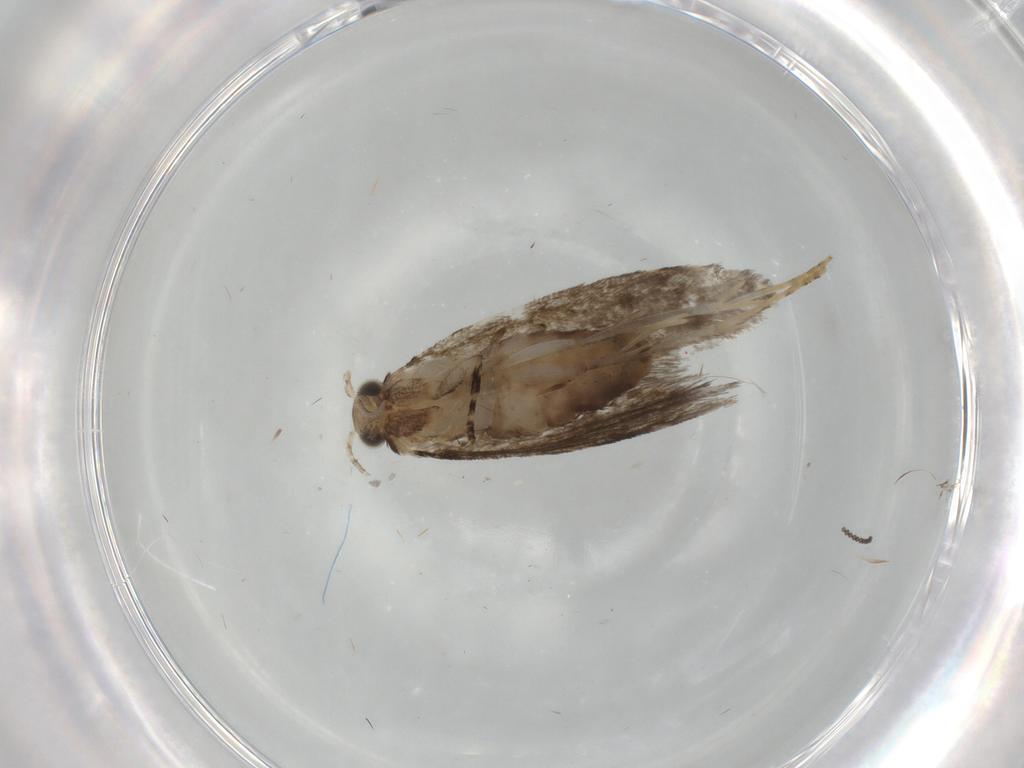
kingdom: Animalia
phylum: Arthropoda
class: Insecta
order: Lepidoptera
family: Tineidae
